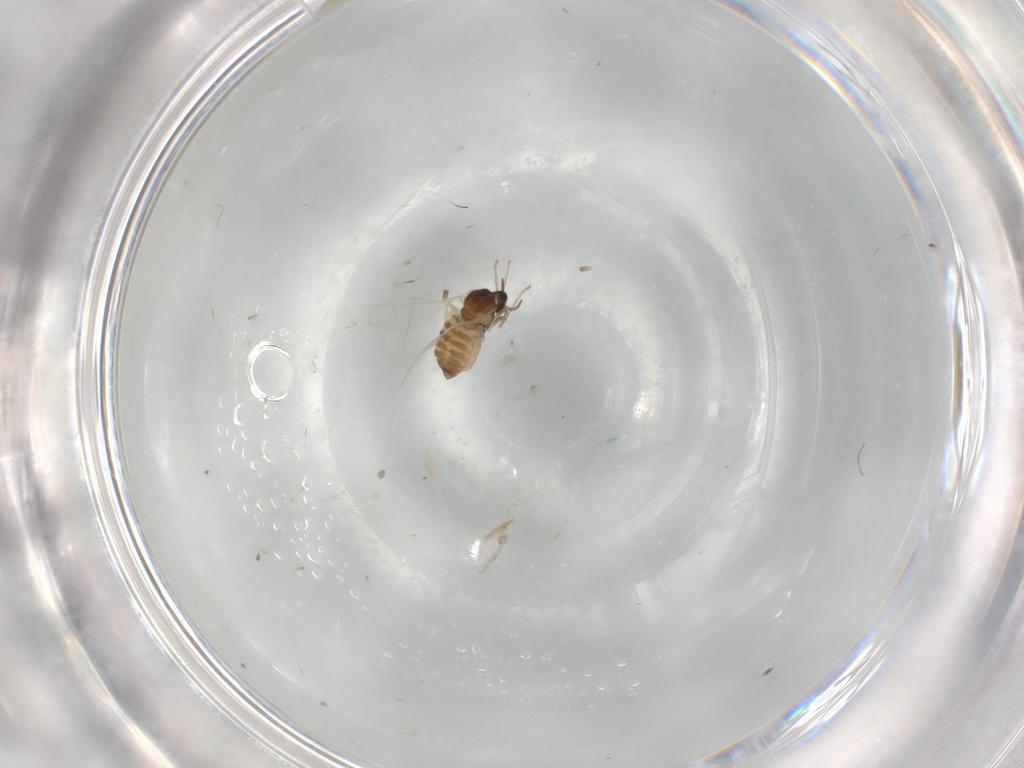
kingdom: Animalia
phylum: Arthropoda
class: Insecta
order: Diptera
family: Cecidomyiidae
